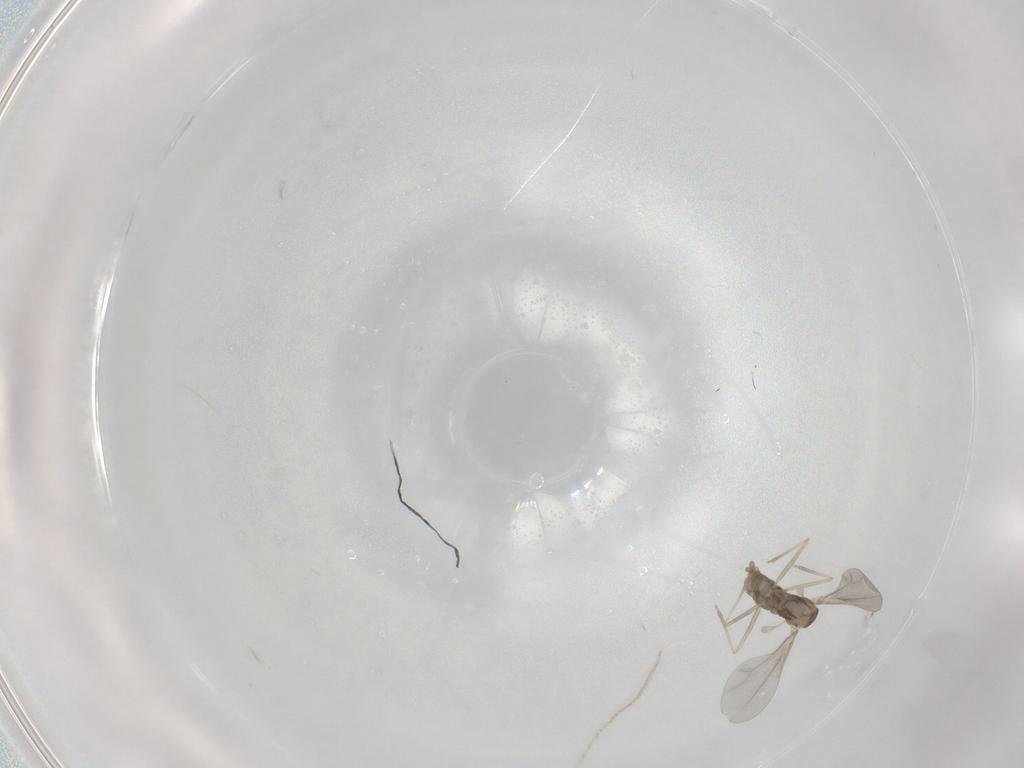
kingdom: Animalia
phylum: Arthropoda
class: Insecta
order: Diptera
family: Cecidomyiidae
